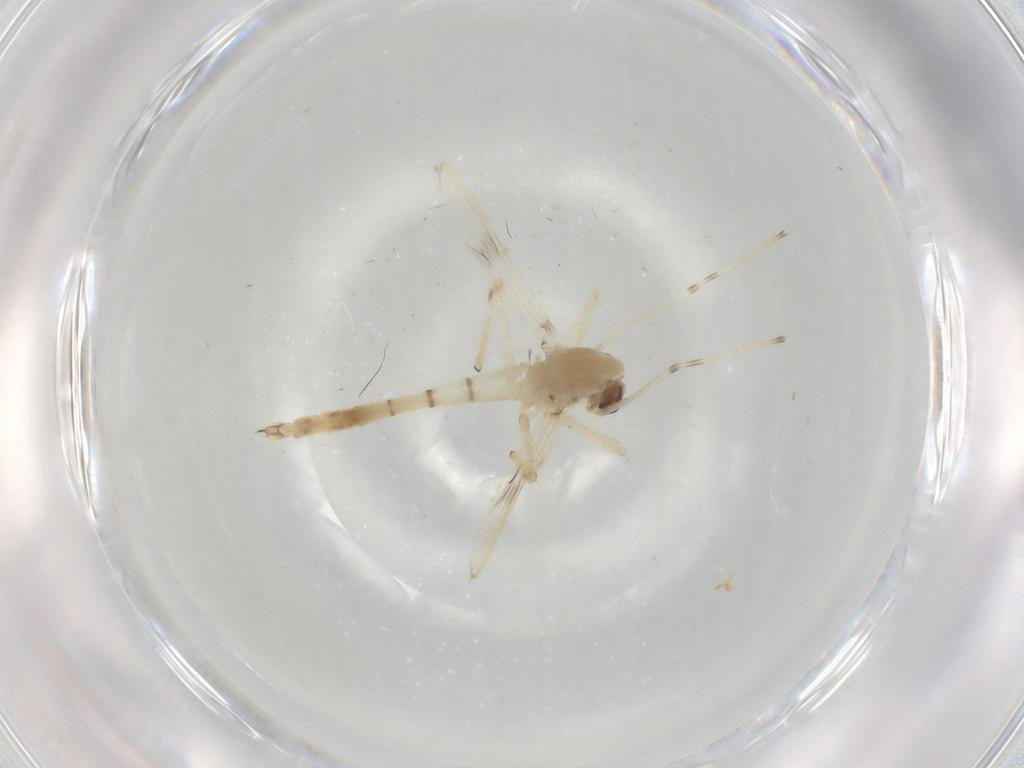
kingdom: Animalia
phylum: Arthropoda
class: Insecta
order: Diptera
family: Chironomidae
